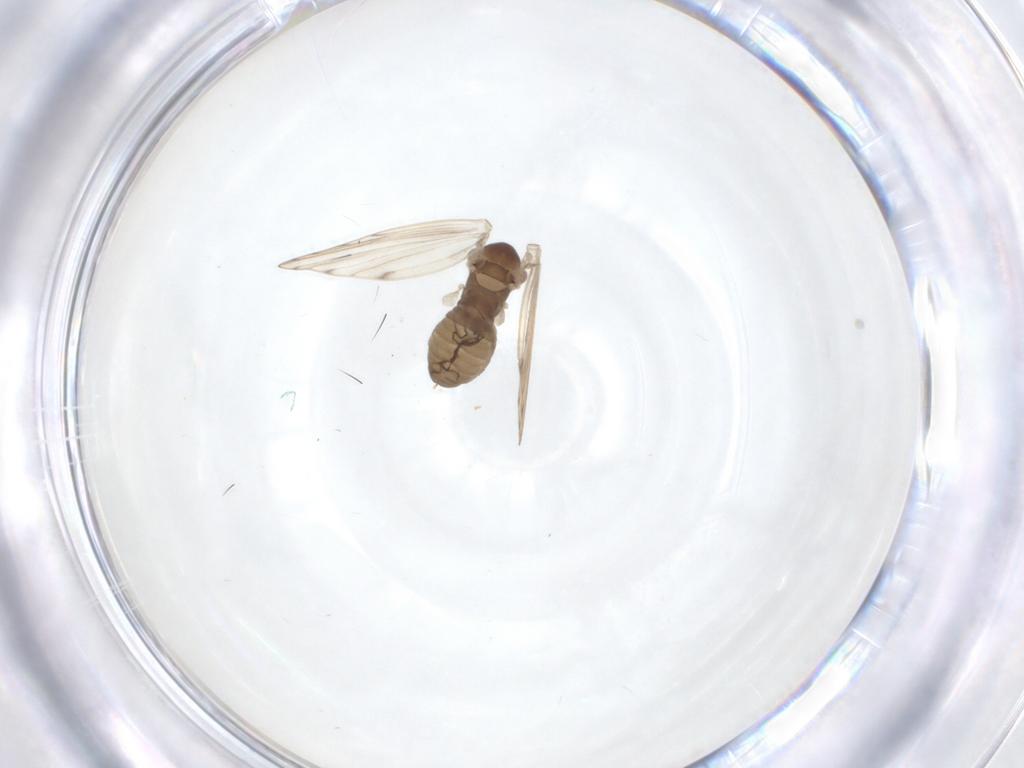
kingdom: Animalia
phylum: Arthropoda
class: Insecta
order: Diptera
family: Psychodidae
